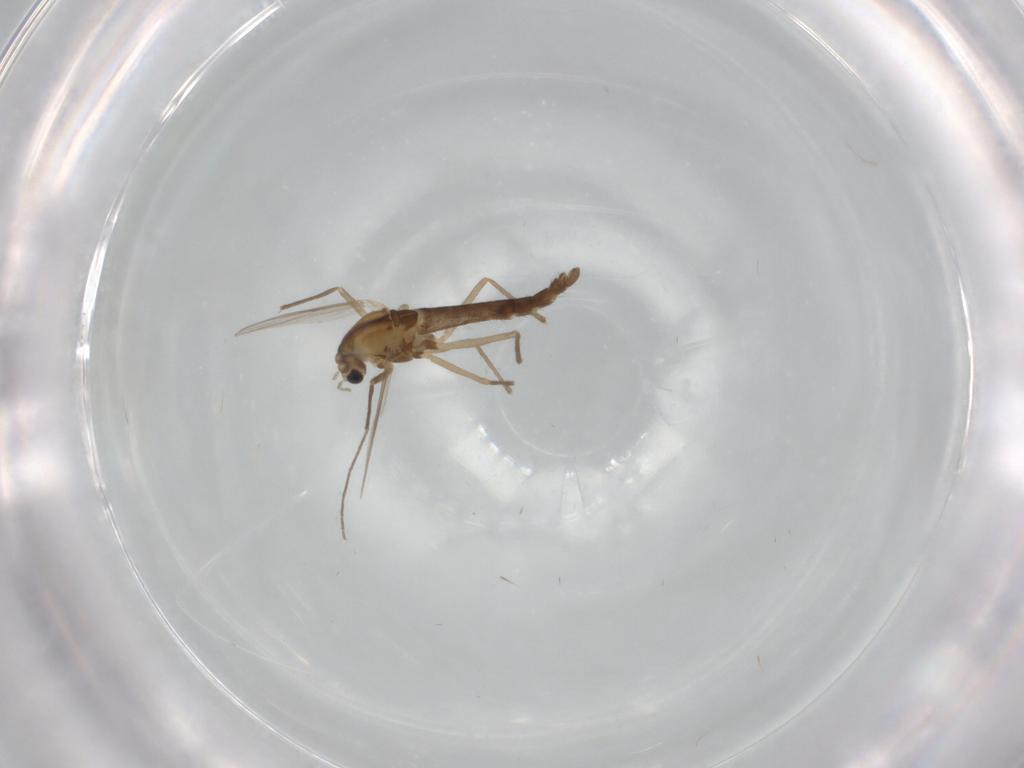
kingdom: Animalia
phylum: Arthropoda
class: Insecta
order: Diptera
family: Chironomidae
